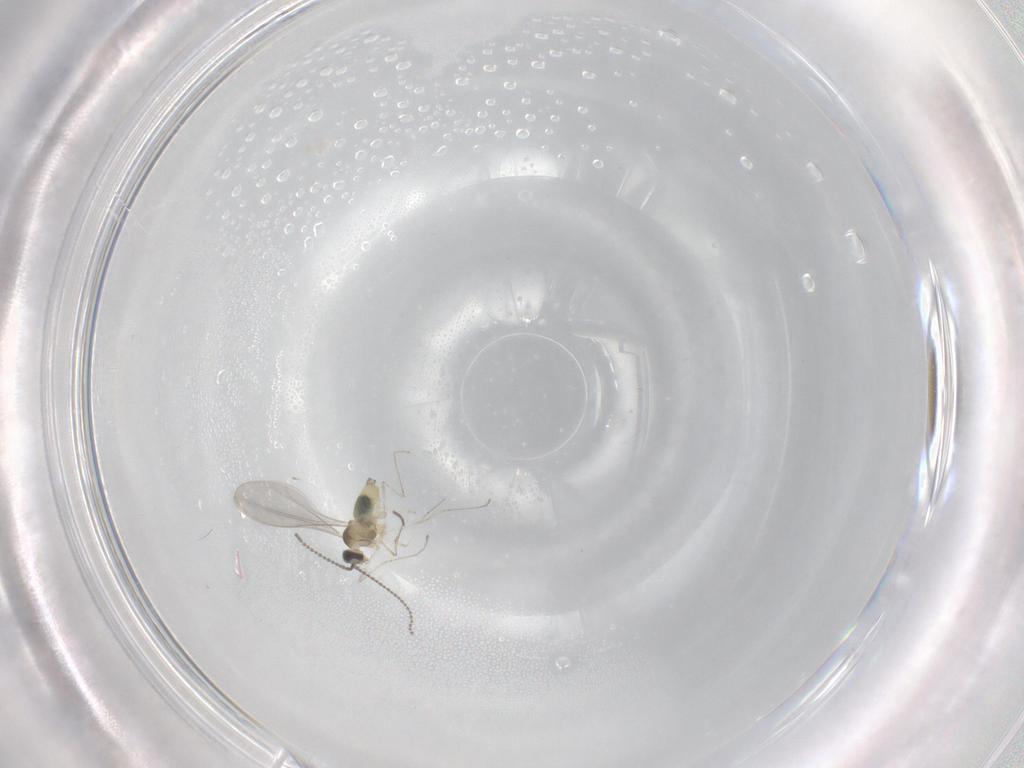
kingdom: Animalia
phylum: Arthropoda
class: Insecta
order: Diptera
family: Cecidomyiidae
